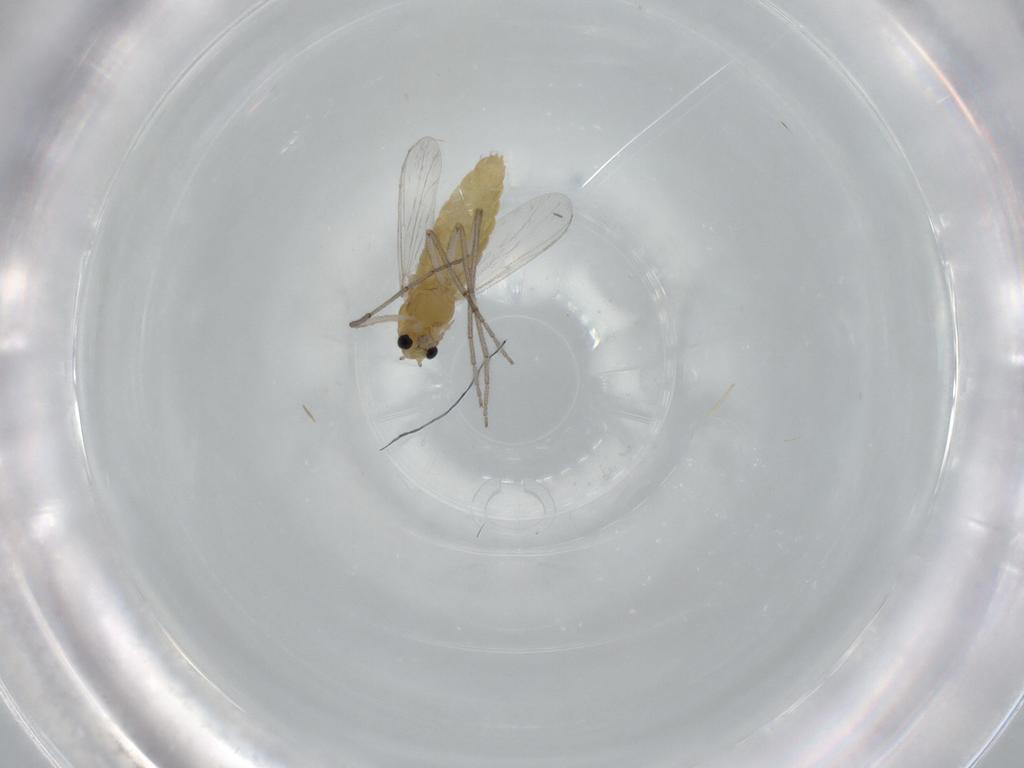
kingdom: Animalia
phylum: Arthropoda
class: Insecta
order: Diptera
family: Chironomidae
